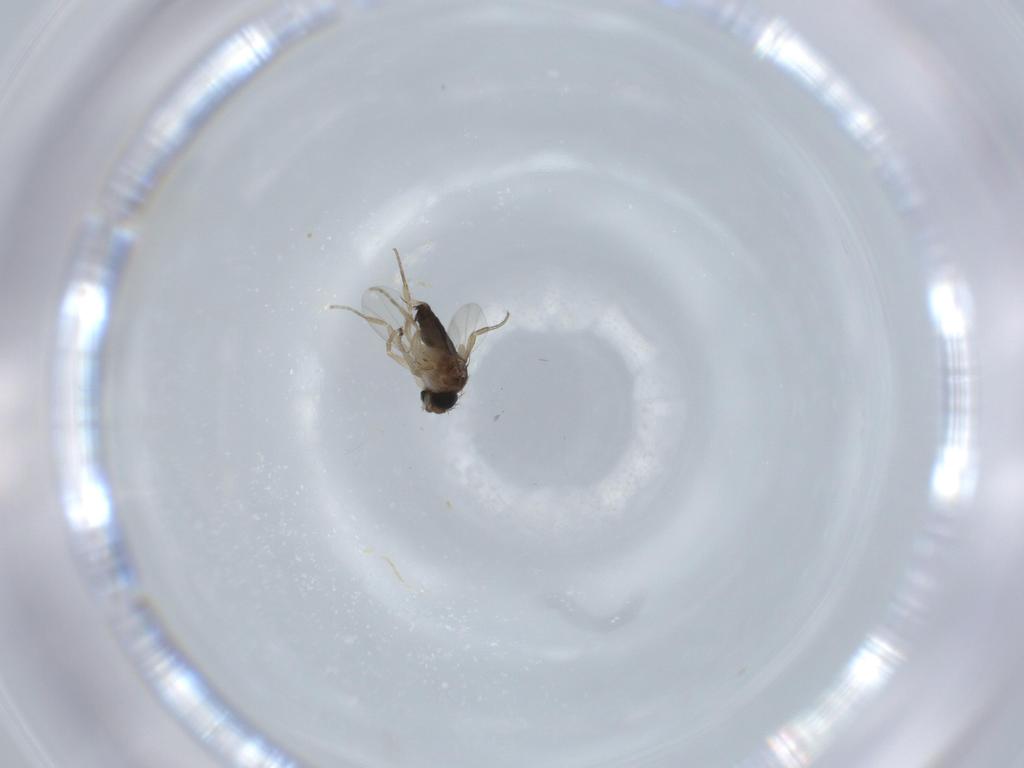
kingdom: Animalia
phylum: Arthropoda
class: Insecta
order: Diptera
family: Phoridae
